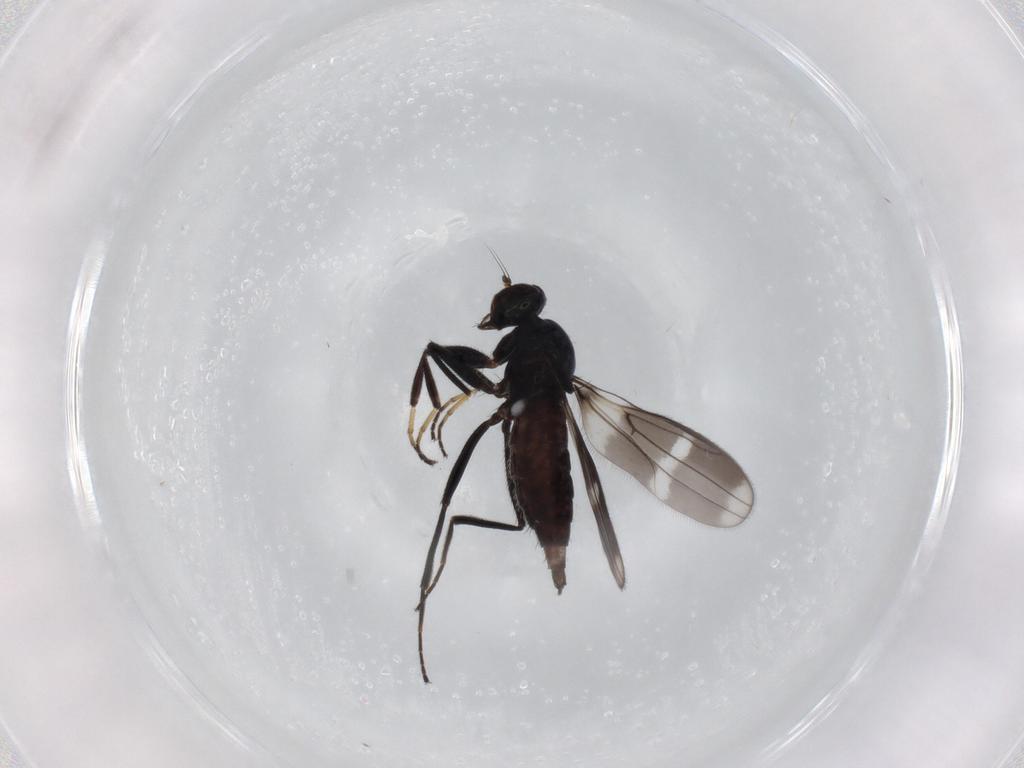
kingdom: Animalia
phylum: Arthropoda
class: Insecta
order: Diptera
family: Hybotidae
